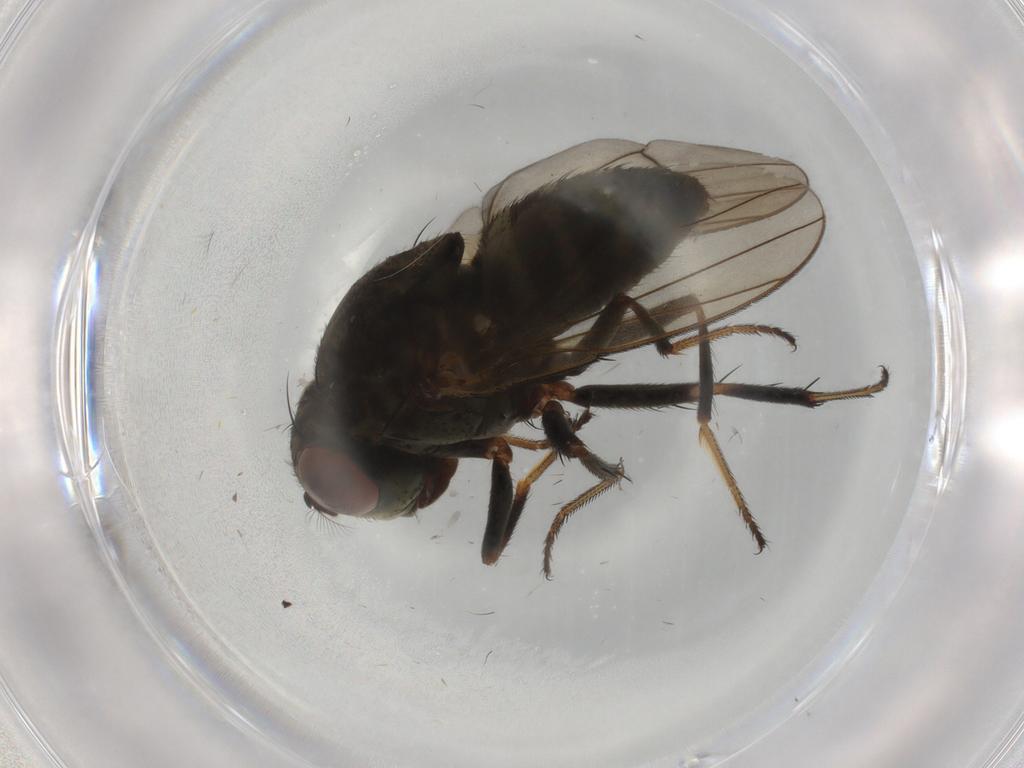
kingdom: Animalia
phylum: Arthropoda
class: Insecta
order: Diptera
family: Ephydridae
